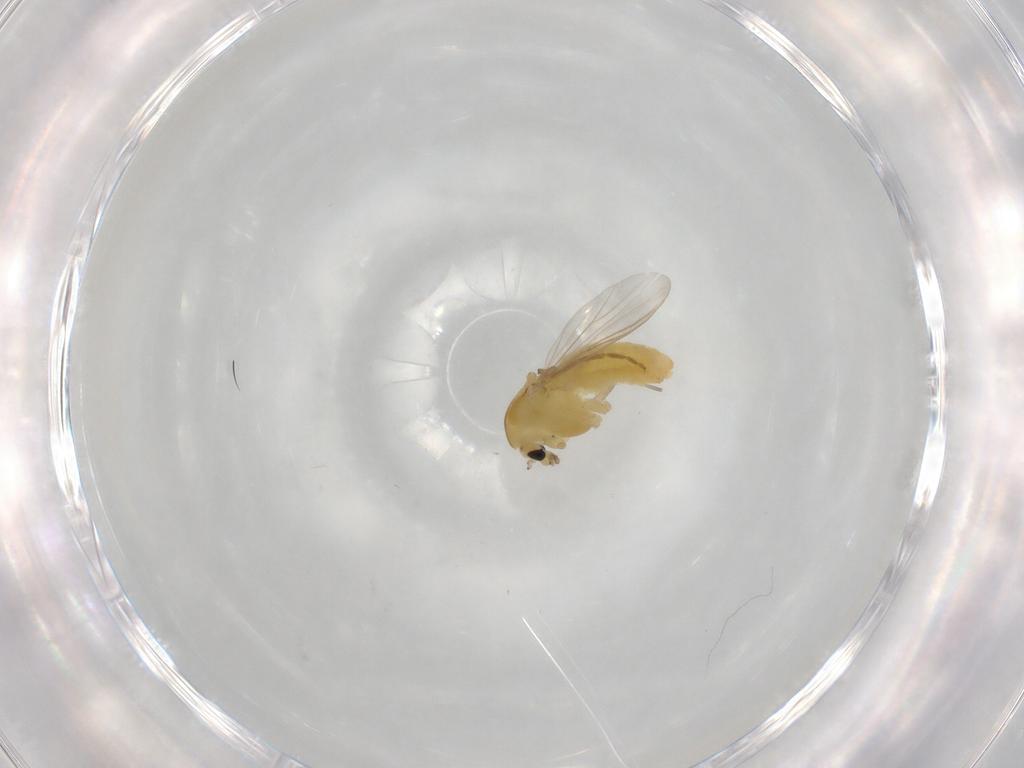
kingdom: Animalia
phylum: Arthropoda
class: Insecta
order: Diptera
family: Chironomidae
